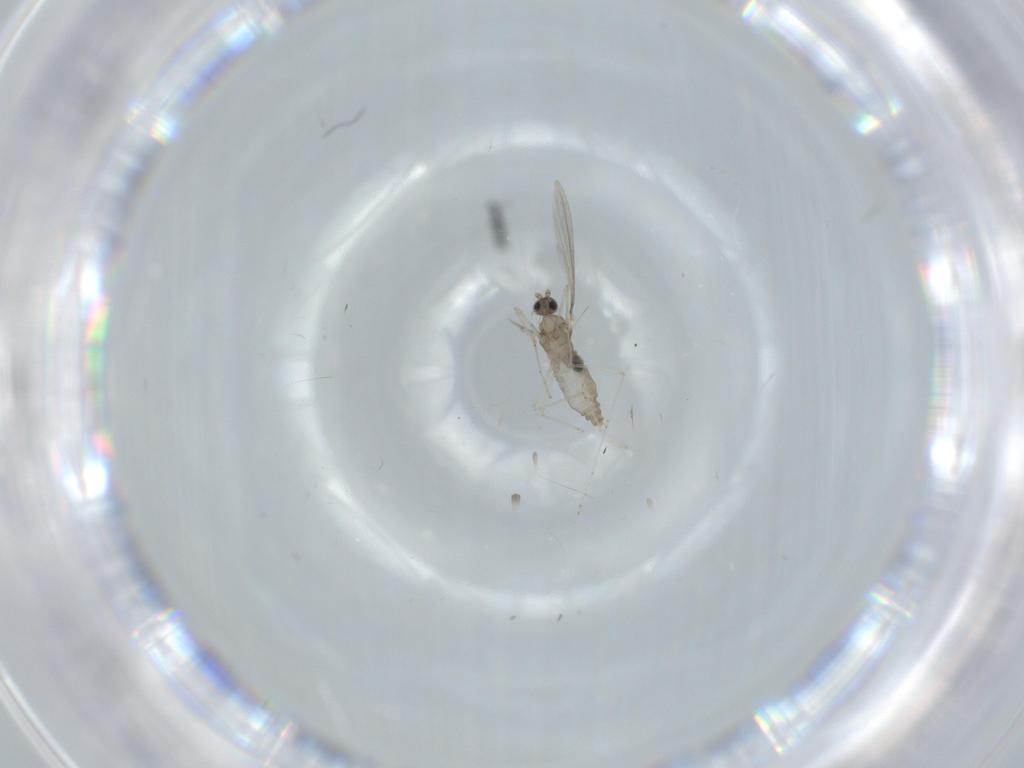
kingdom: Animalia
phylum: Arthropoda
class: Insecta
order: Diptera
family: Cecidomyiidae
